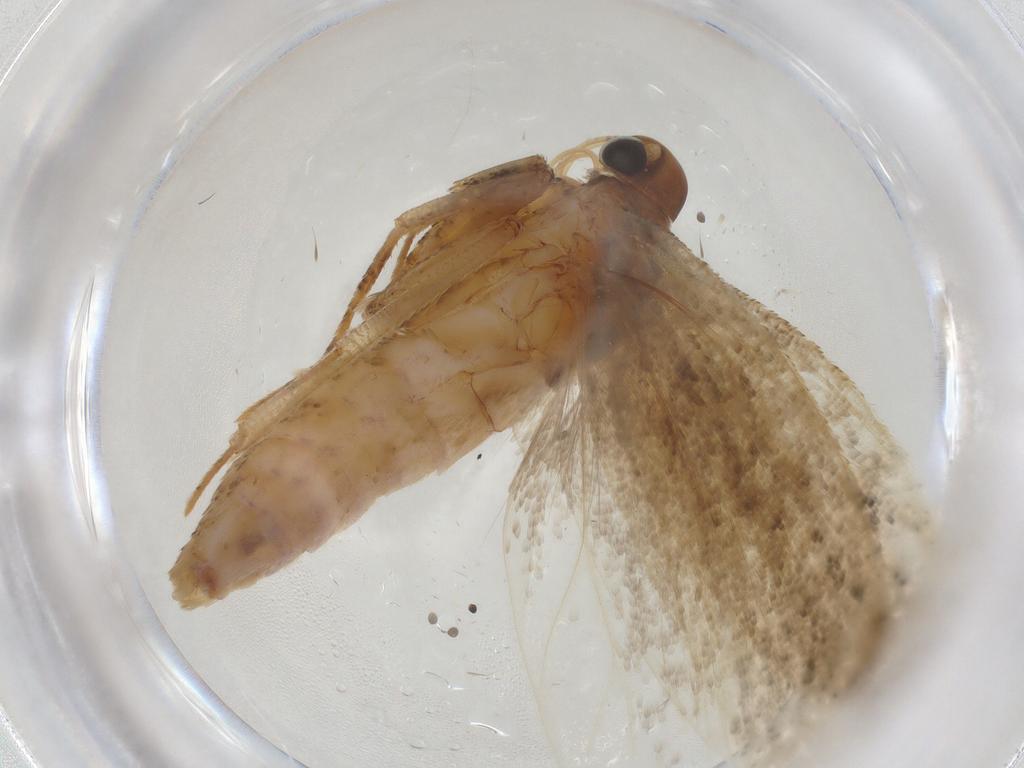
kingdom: Animalia
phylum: Arthropoda
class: Insecta
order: Lepidoptera
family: Gelechiidae
